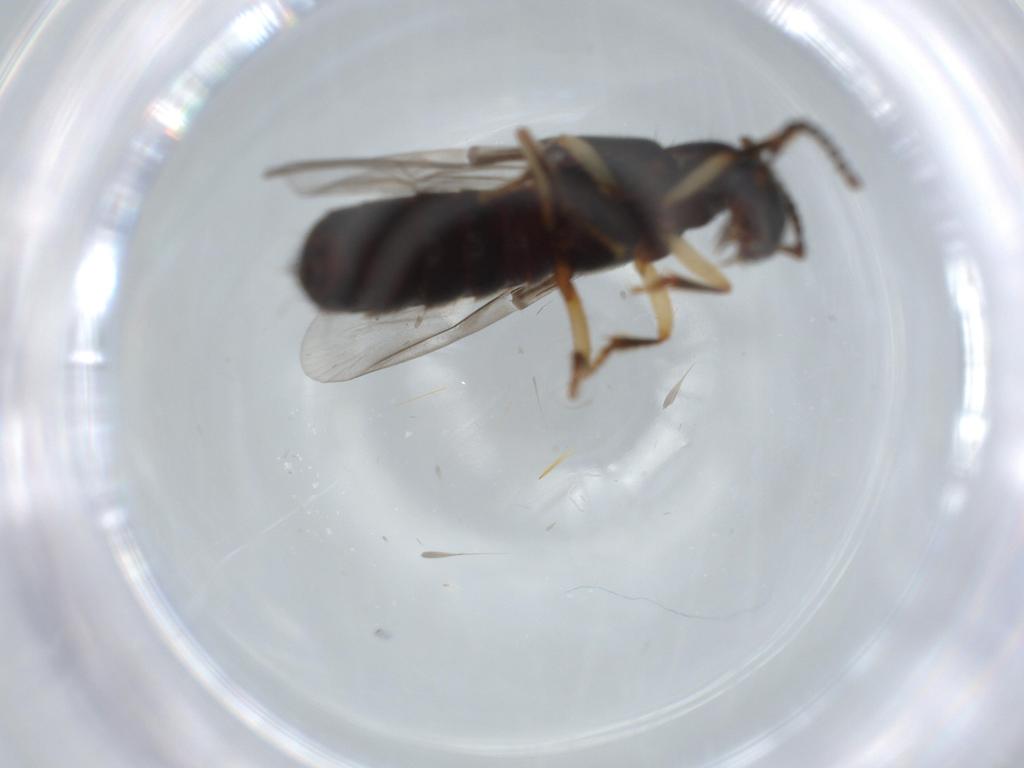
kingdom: Animalia
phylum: Arthropoda
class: Insecta
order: Coleoptera
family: Staphylinidae
